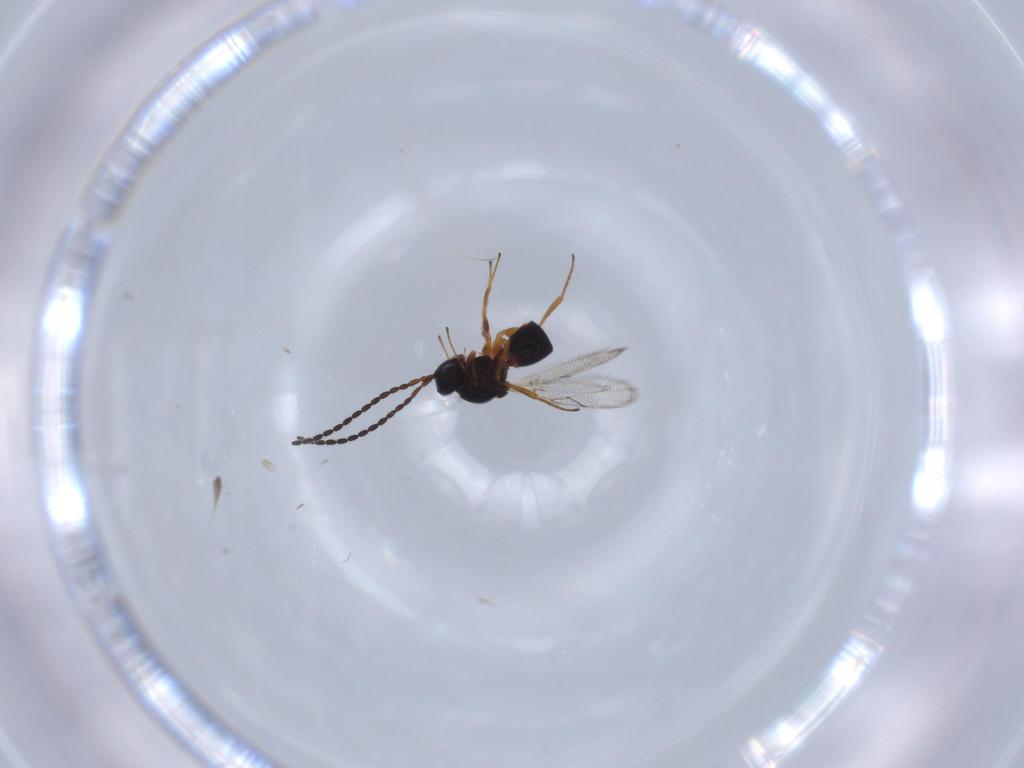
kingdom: Animalia
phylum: Arthropoda
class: Insecta
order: Hymenoptera
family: Figitidae
